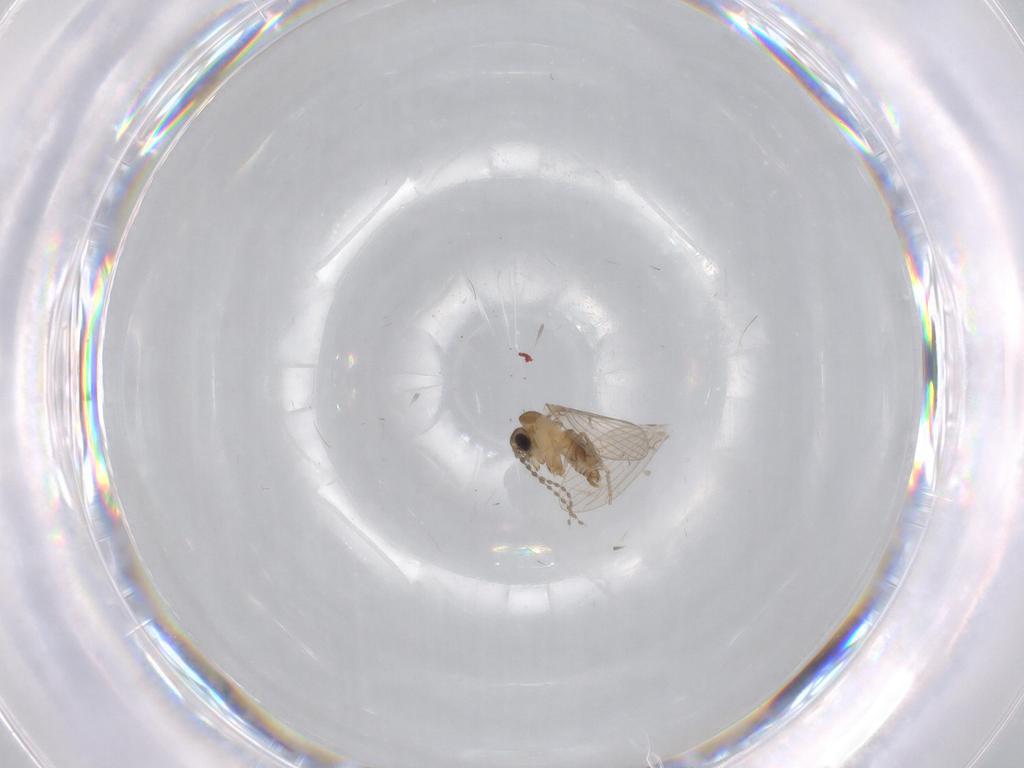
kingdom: Animalia
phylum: Arthropoda
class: Insecta
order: Diptera
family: Psychodidae
